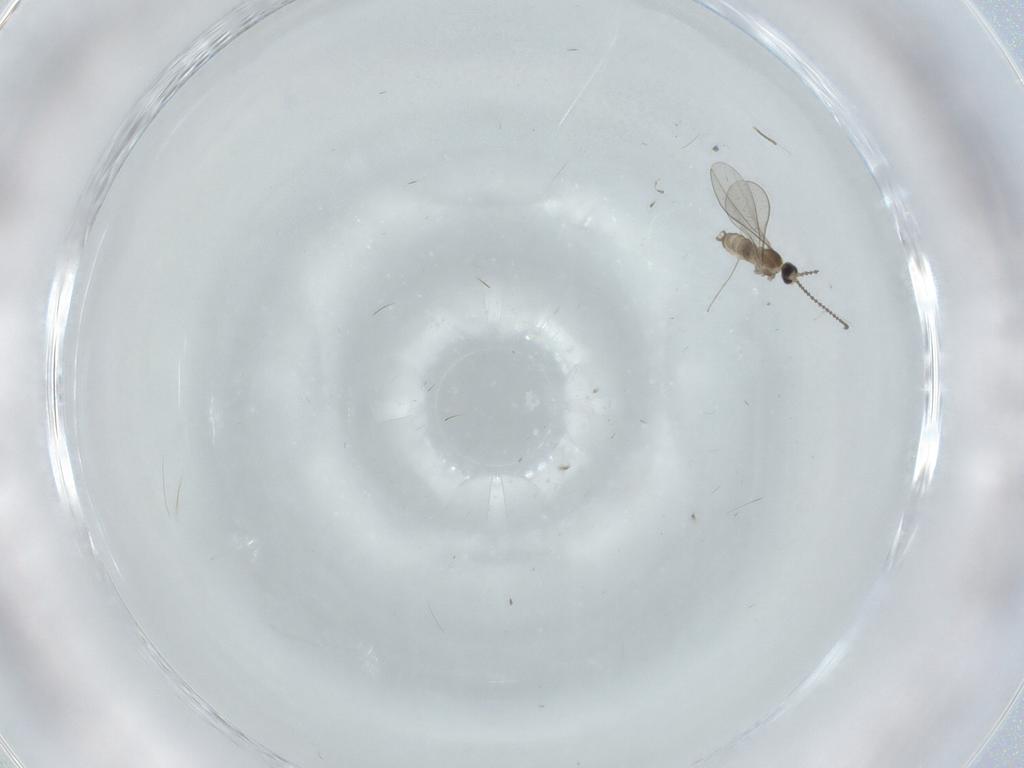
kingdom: Animalia
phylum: Arthropoda
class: Insecta
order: Diptera
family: Cecidomyiidae
